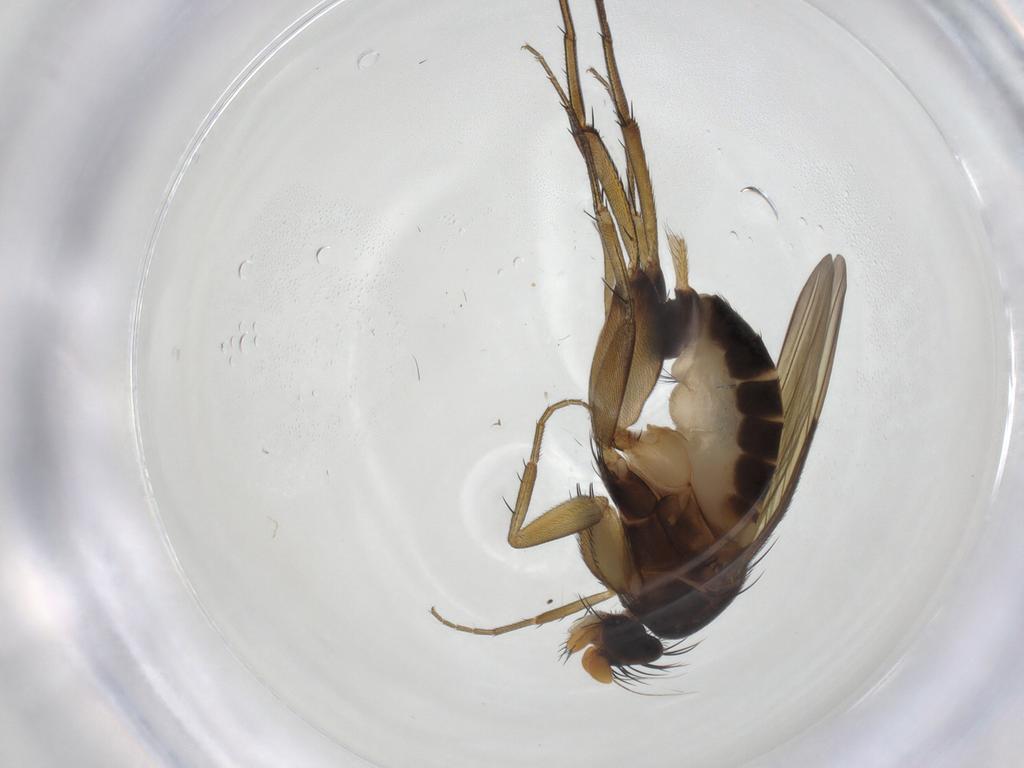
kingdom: Animalia
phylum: Arthropoda
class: Insecta
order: Diptera
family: Phoridae
